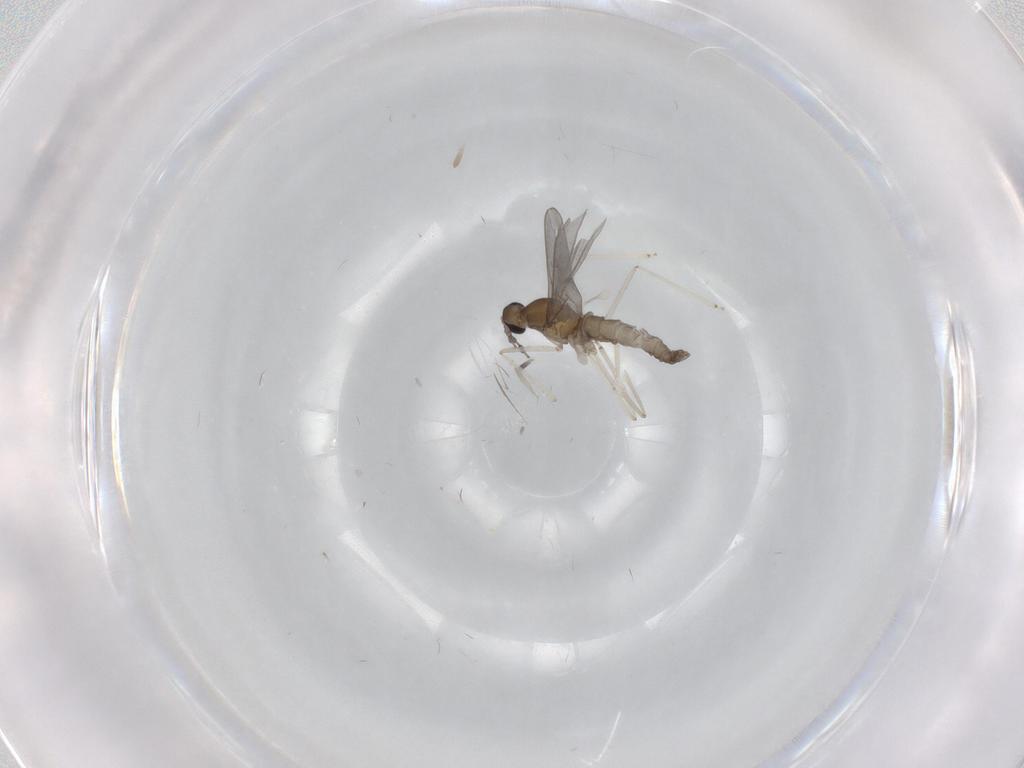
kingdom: Animalia
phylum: Arthropoda
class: Insecta
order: Diptera
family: Cecidomyiidae
